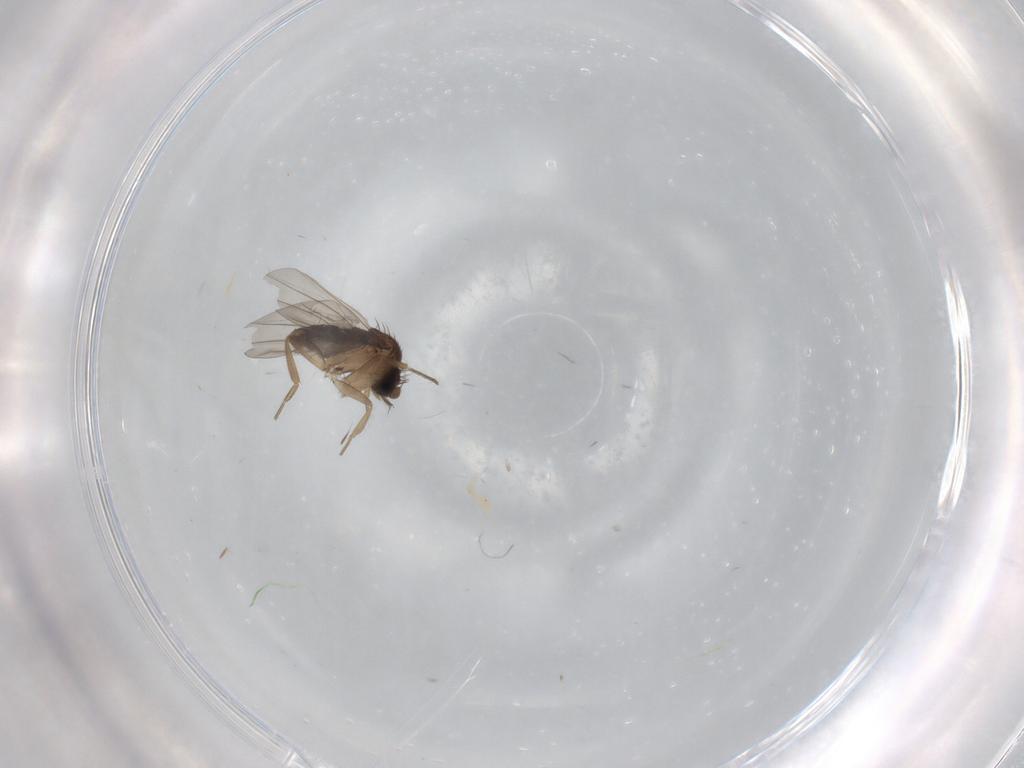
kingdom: Animalia
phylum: Arthropoda
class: Insecta
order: Diptera
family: Phoridae
